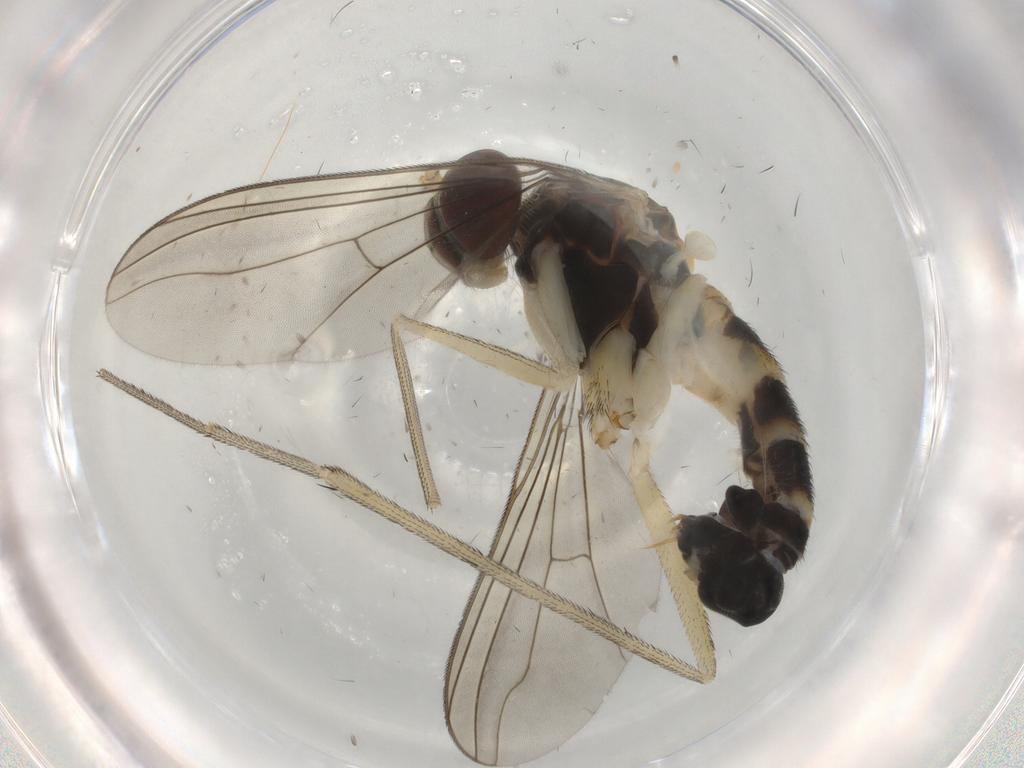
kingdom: Animalia
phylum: Arthropoda
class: Insecta
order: Diptera
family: Dolichopodidae
